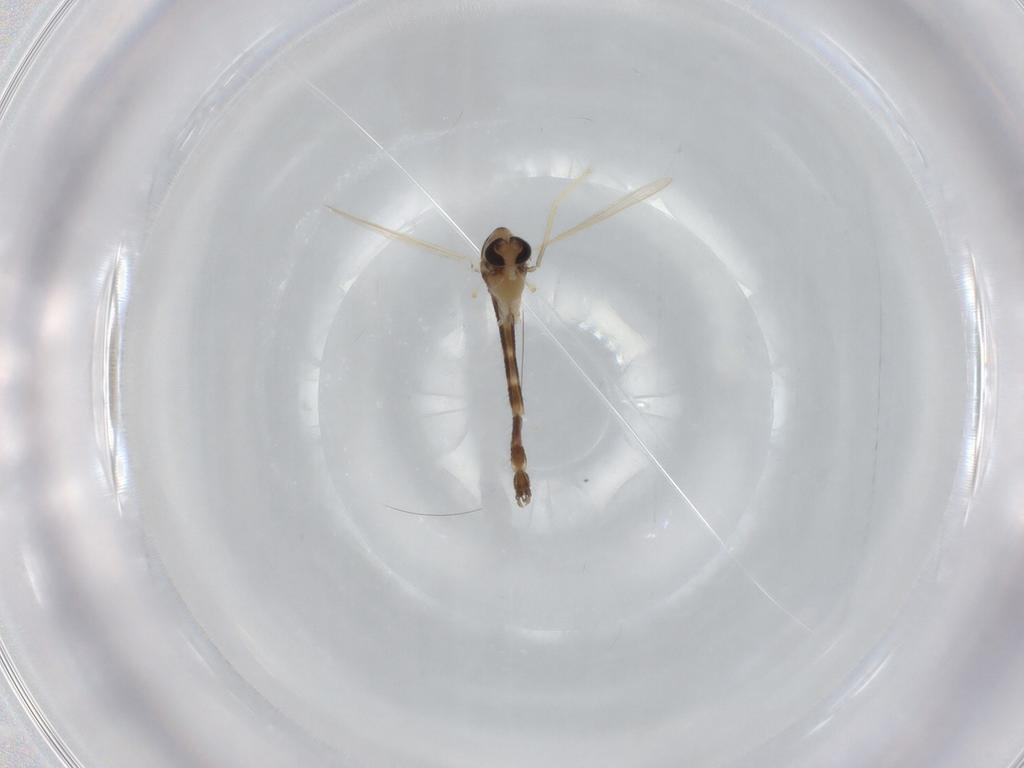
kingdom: Animalia
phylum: Arthropoda
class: Insecta
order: Diptera
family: Chironomidae
